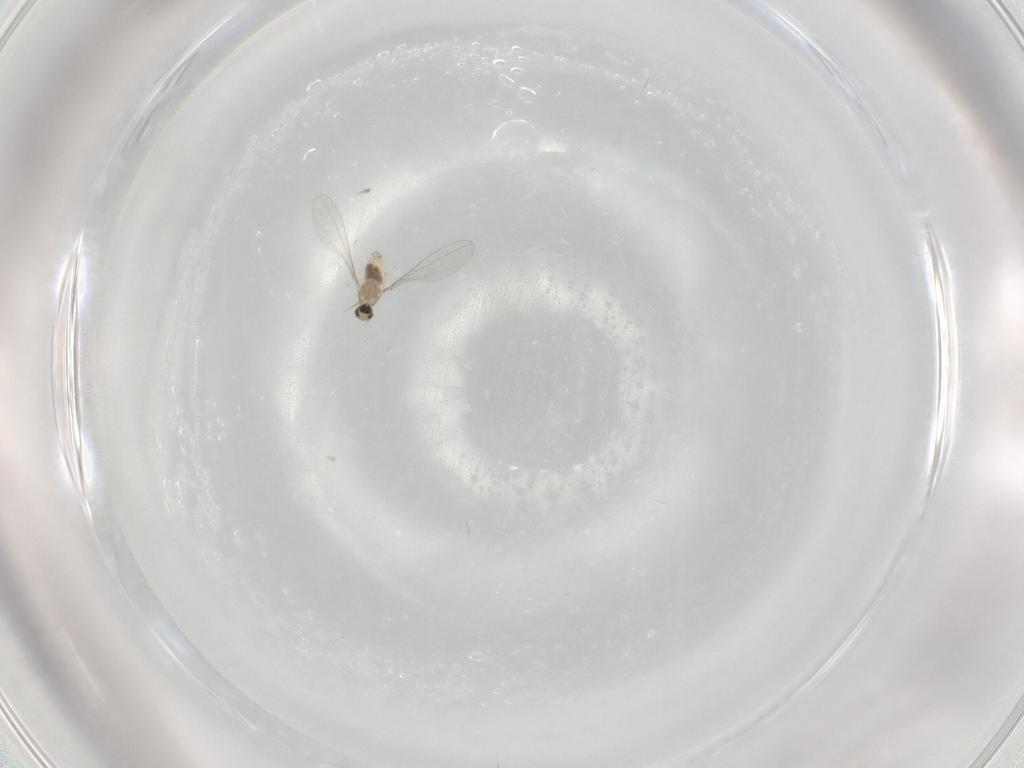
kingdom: Animalia
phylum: Arthropoda
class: Insecta
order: Diptera
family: Cecidomyiidae
